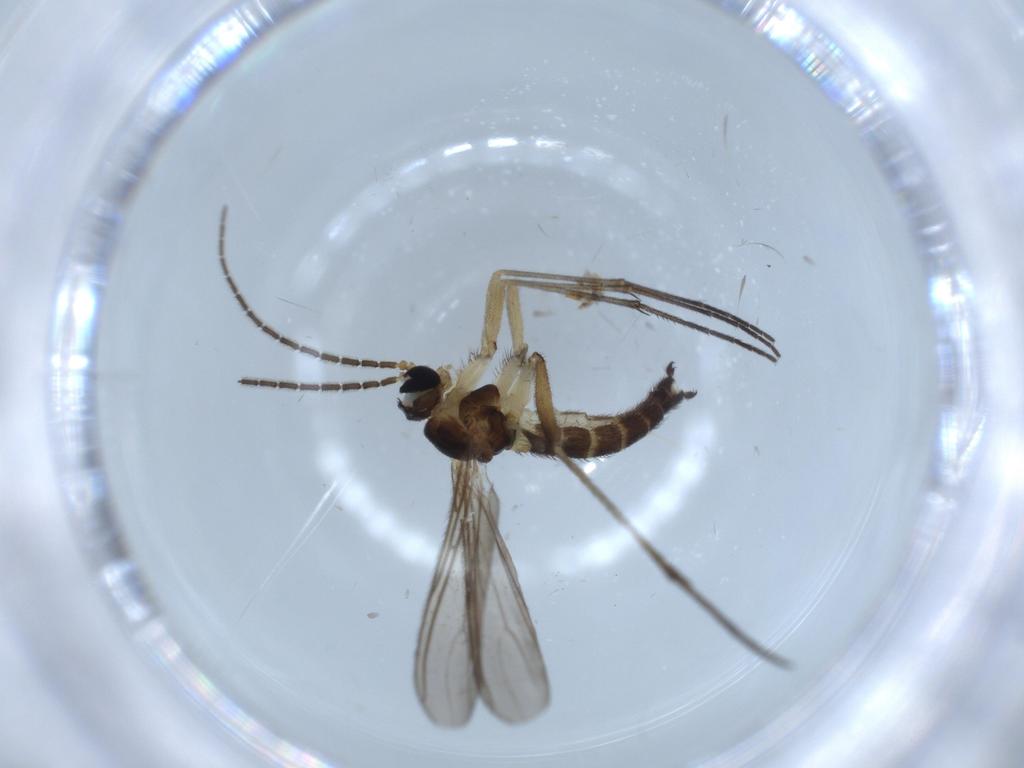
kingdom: Animalia
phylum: Arthropoda
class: Insecta
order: Diptera
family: Sciaridae
